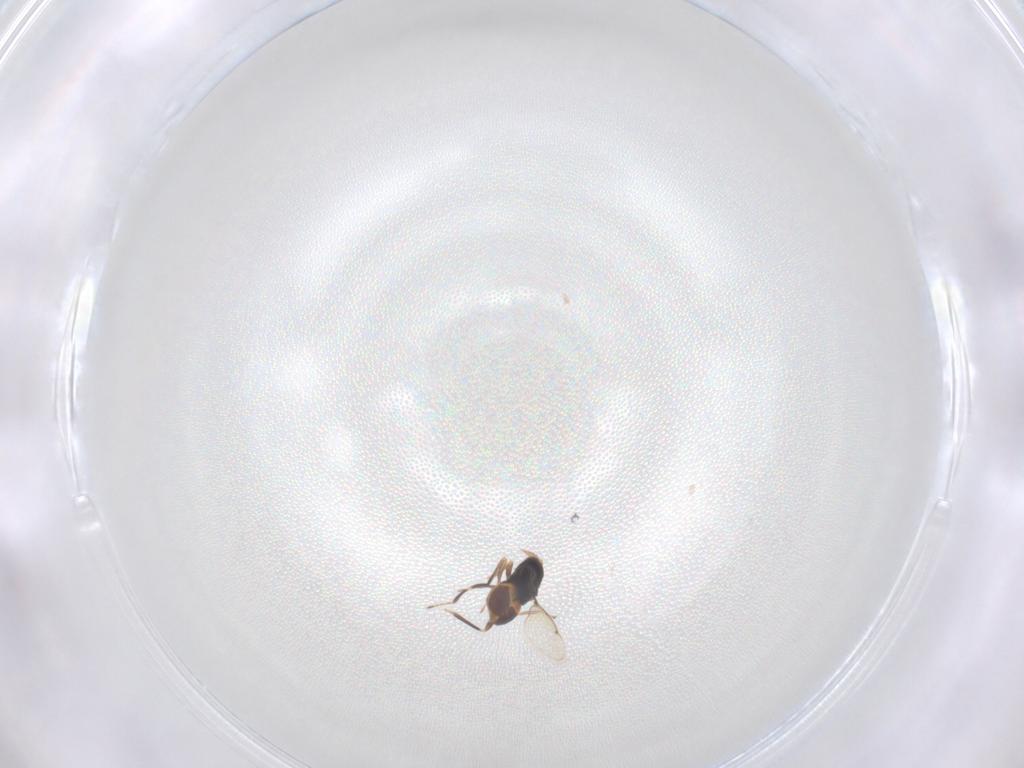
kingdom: Animalia
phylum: Arthropoda
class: Insecta
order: Hymenoptera
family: Eurytomidae
